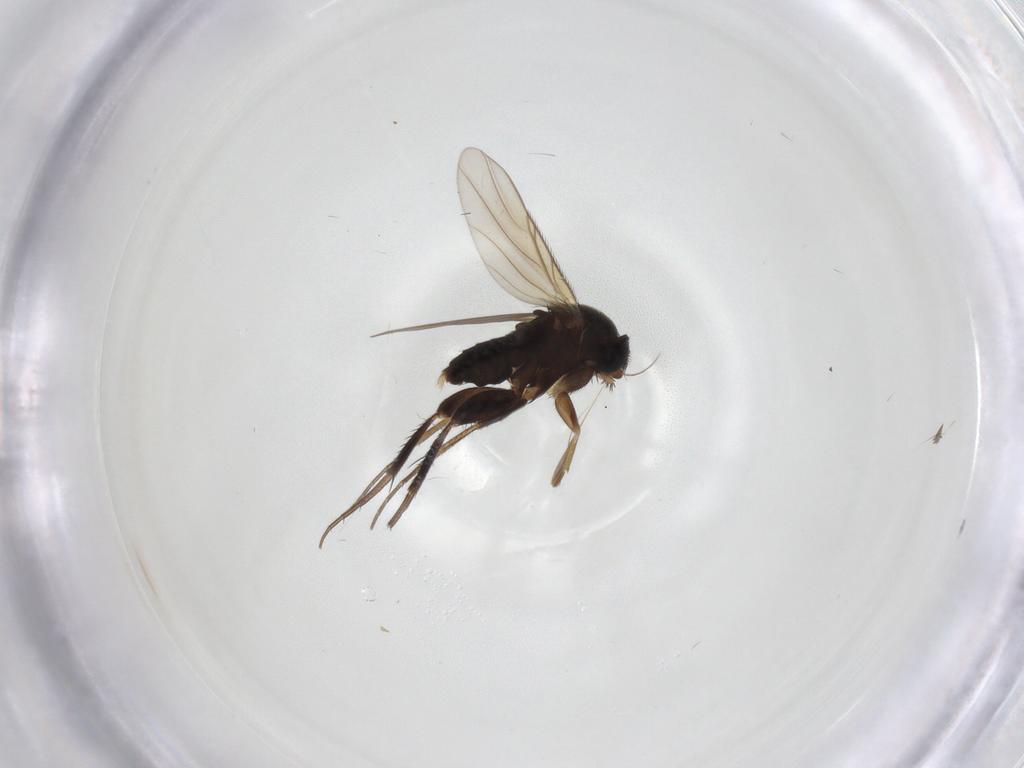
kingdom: Animalia
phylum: Arthropoda
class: Insecta
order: Diptera
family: Phoridae
